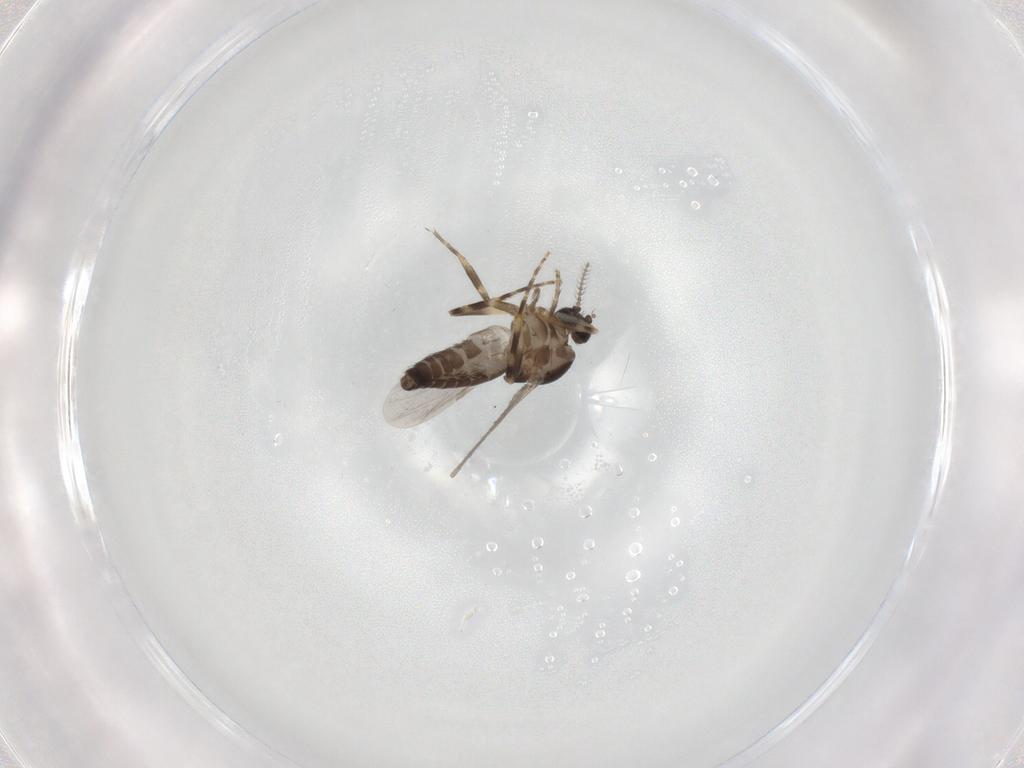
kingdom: Animalia
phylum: Arthropoda
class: Insecta
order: Diptera
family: Ceratopogonidae
